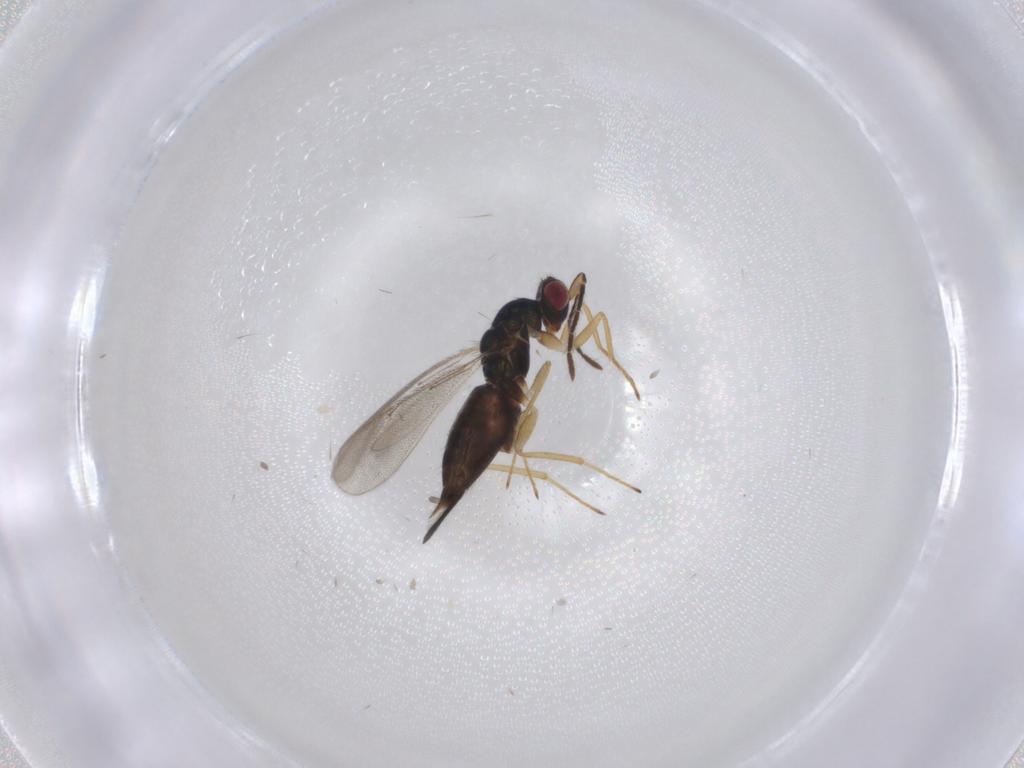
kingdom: Animalia
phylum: Arthropoda
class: Insecta
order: Hymenoptera
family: Eulophidae
